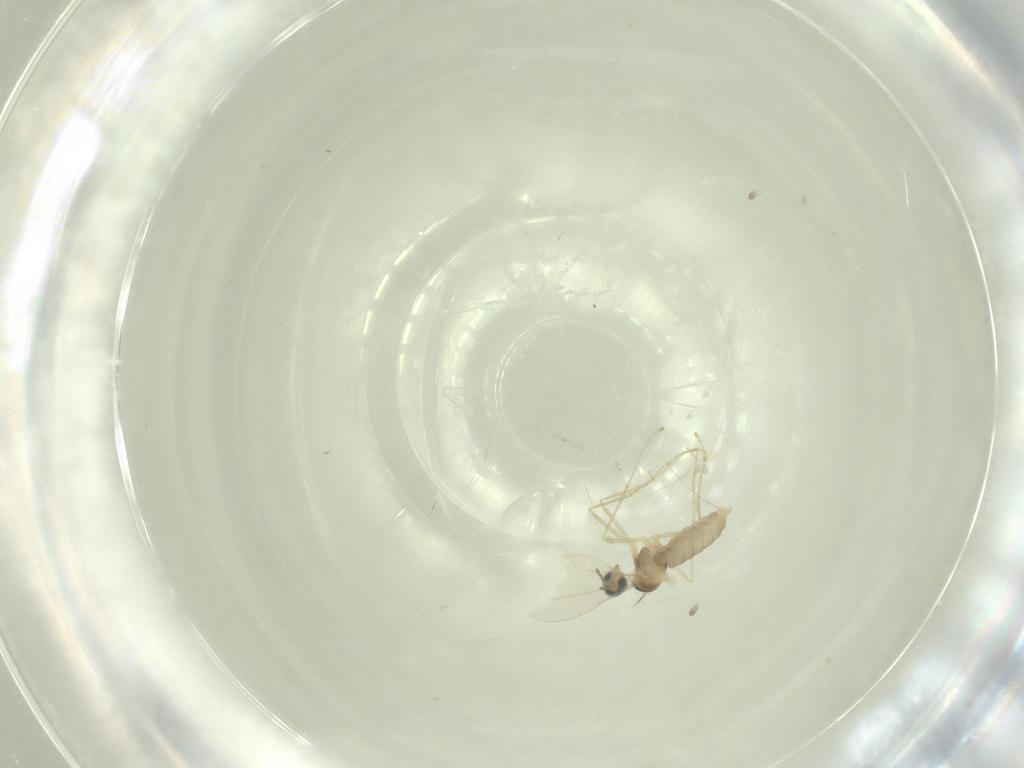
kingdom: Animalia
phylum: Arthropoda
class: Insecta
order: Diptera
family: Cecidomyiidae
